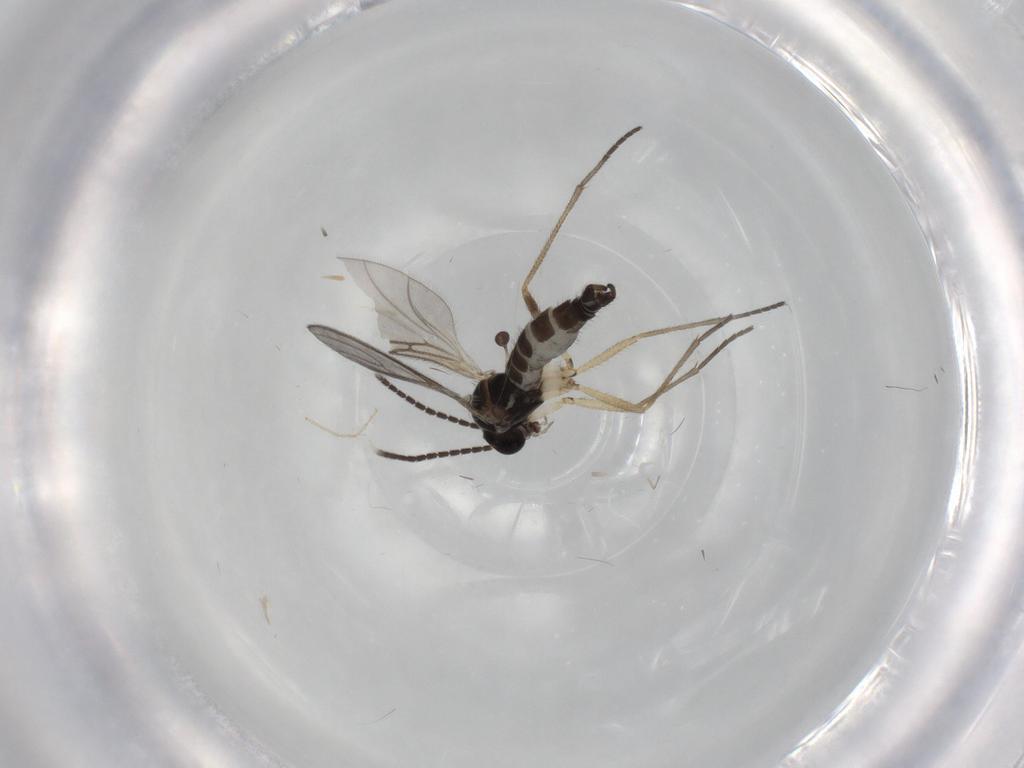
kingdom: Animalia
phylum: Arthropoda
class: Insecta
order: Diptera
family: Sciaridae
